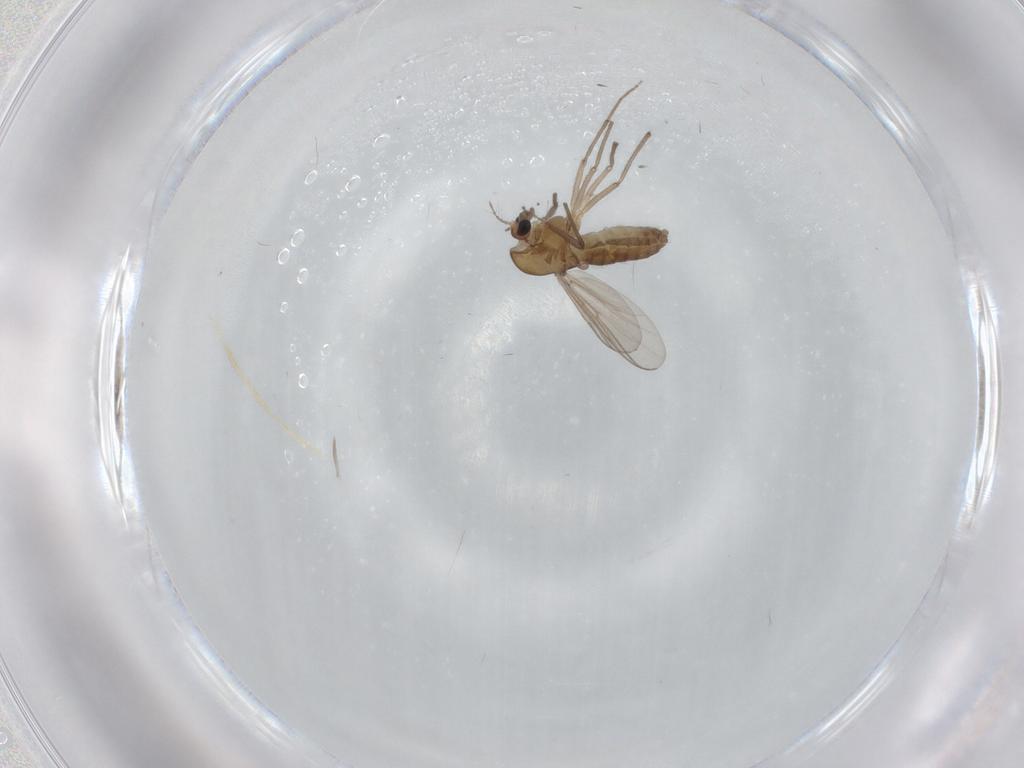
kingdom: Animalia
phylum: Arthropoda
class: Insecta
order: Diptera
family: Chironomidae
